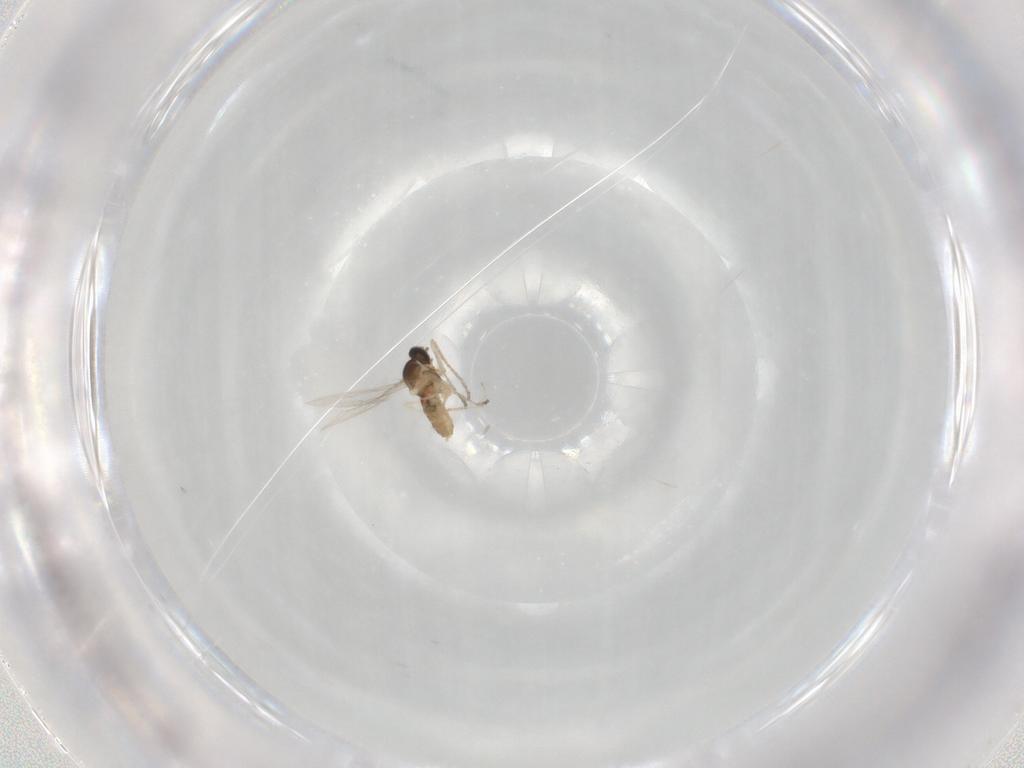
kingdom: Animalia
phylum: Arthropoda
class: Insecta
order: Diptera
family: Cecidomyiidae
